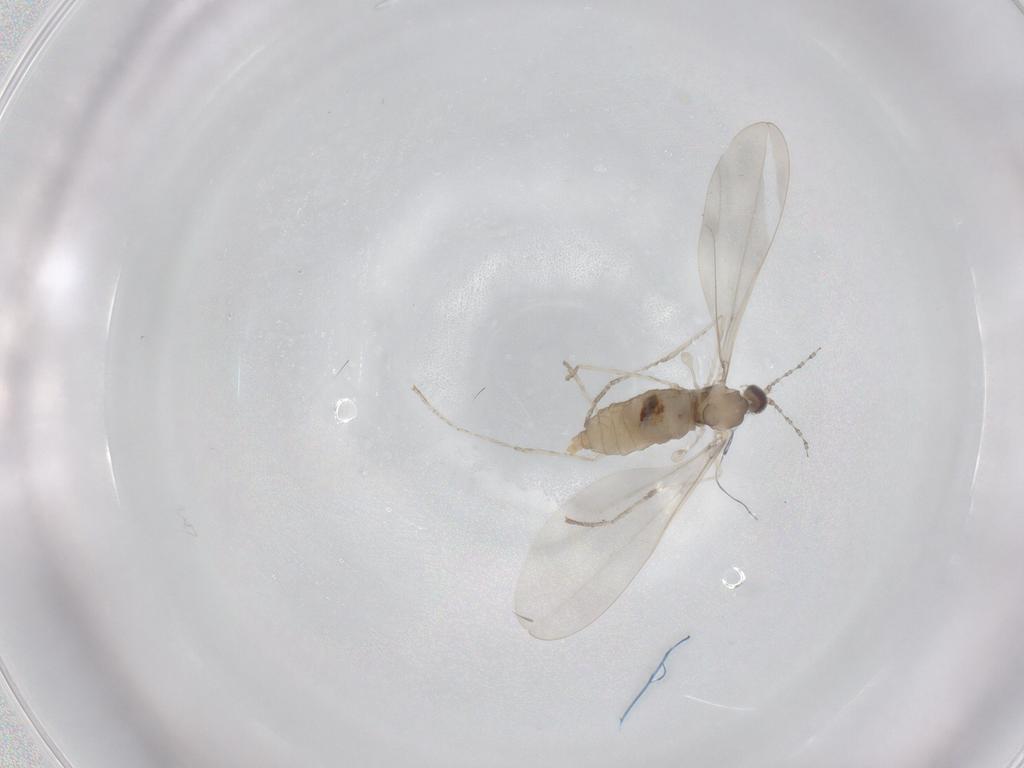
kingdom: Animalia
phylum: Arthropoda
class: Insecta
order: Diptera
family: Cecidomyiidae
